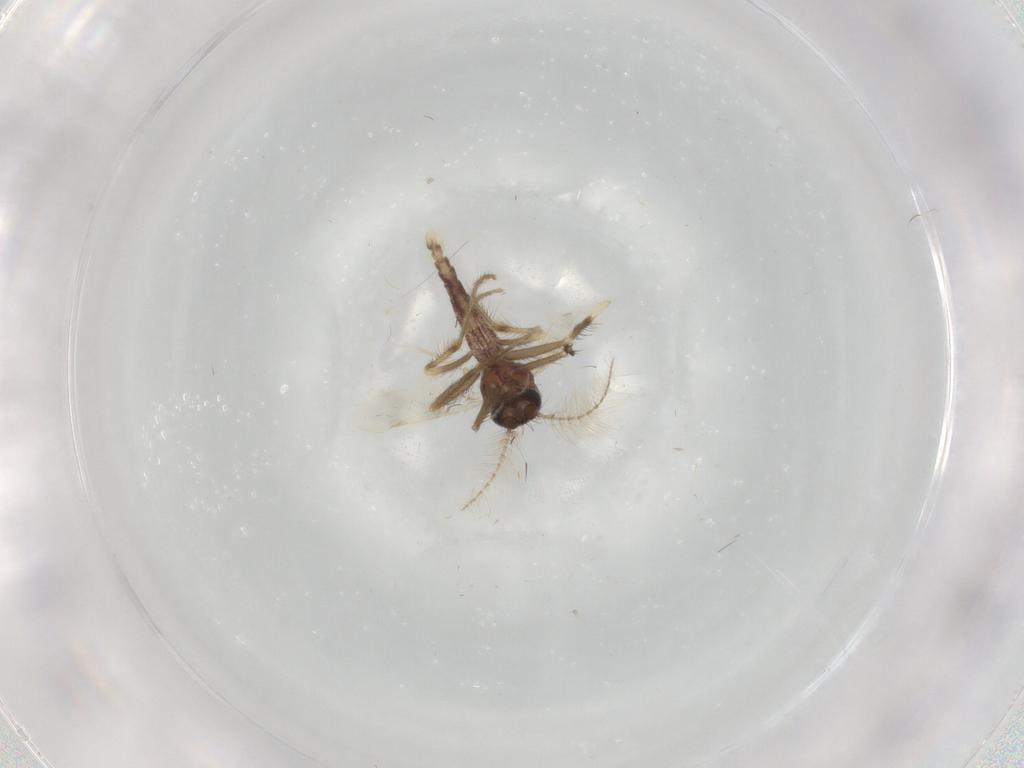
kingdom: Animalia
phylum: Arthropoda
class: Insecta
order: Diptera
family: Corethrellidae
